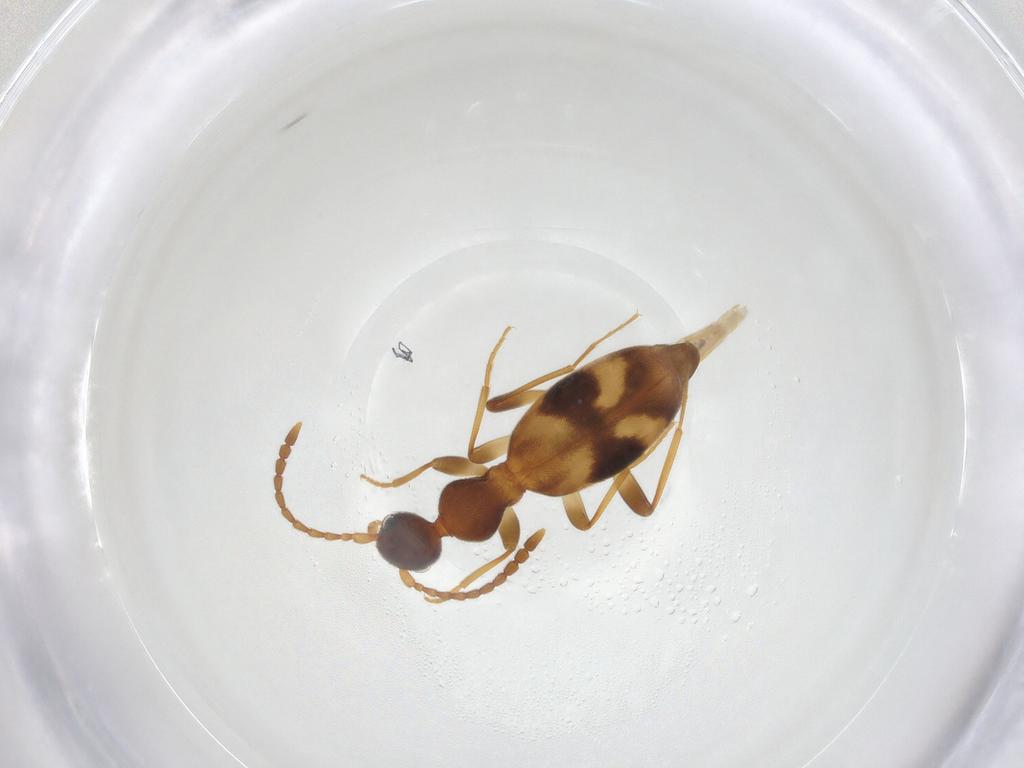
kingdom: Animalia
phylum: Arthropoda
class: Insecta
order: Coleoptera
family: Anthicidae
